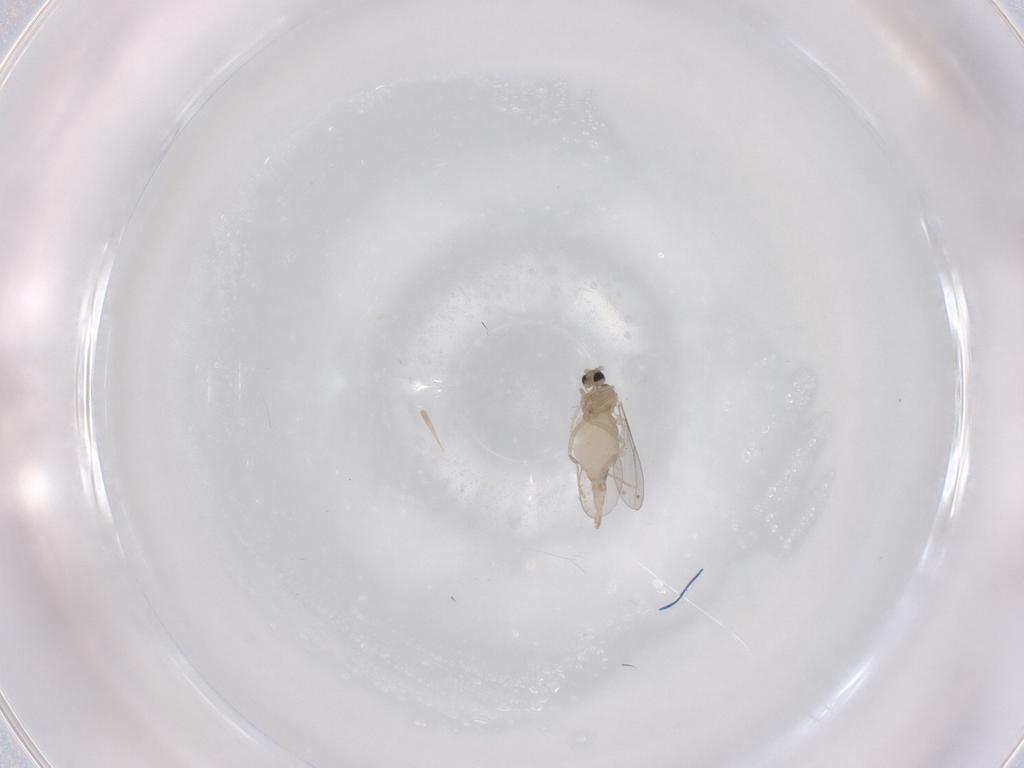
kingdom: Animalia
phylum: Arthropoda
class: Insecta
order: Diptera
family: Cecidomyiidae
